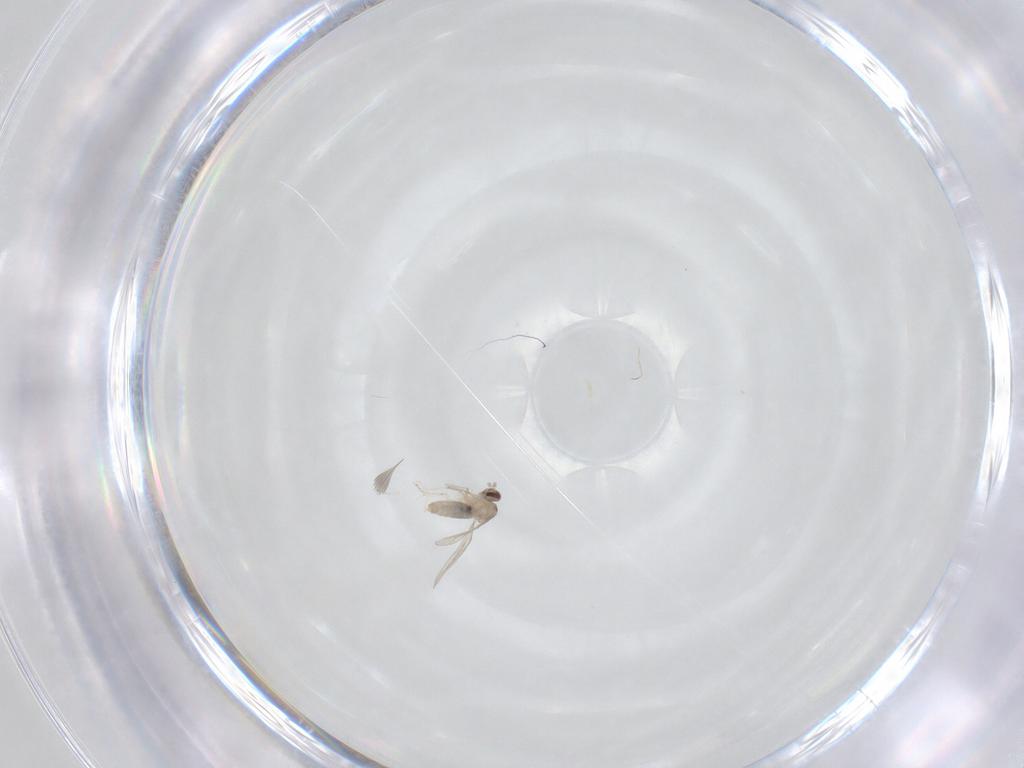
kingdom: Animalia
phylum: Arthropoda
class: Insecta
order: Diptera
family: Cecidomyiidae
